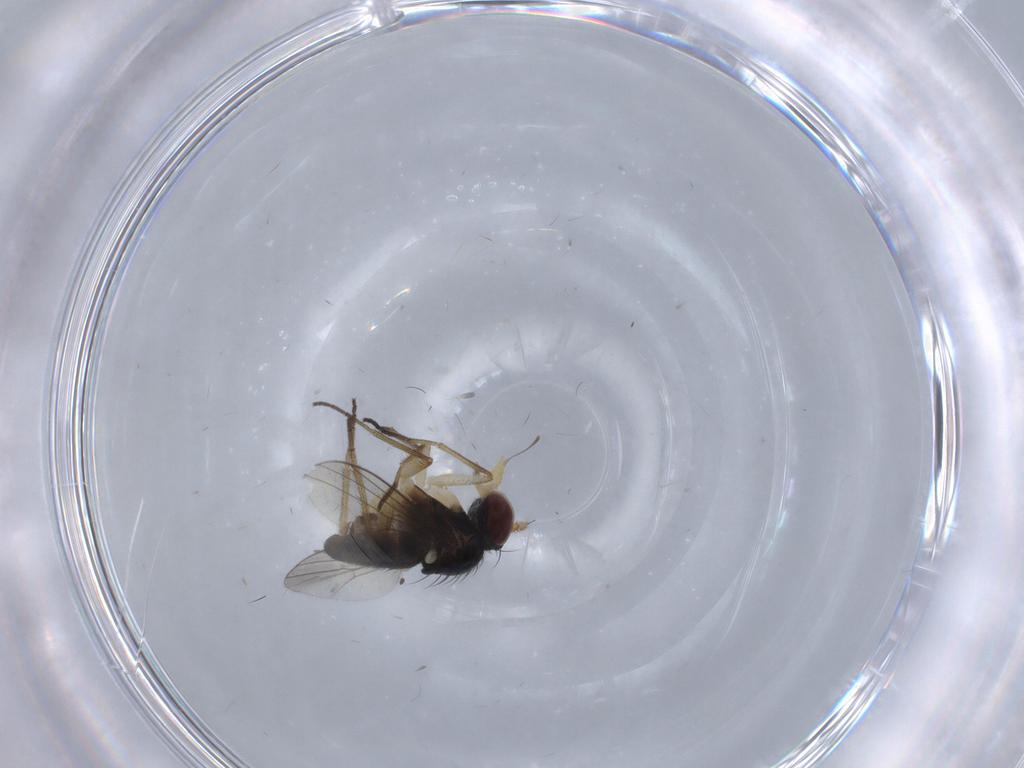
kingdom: Animalia
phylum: Arthropoda
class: Insecta
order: Diptera
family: Dolichopodidae
